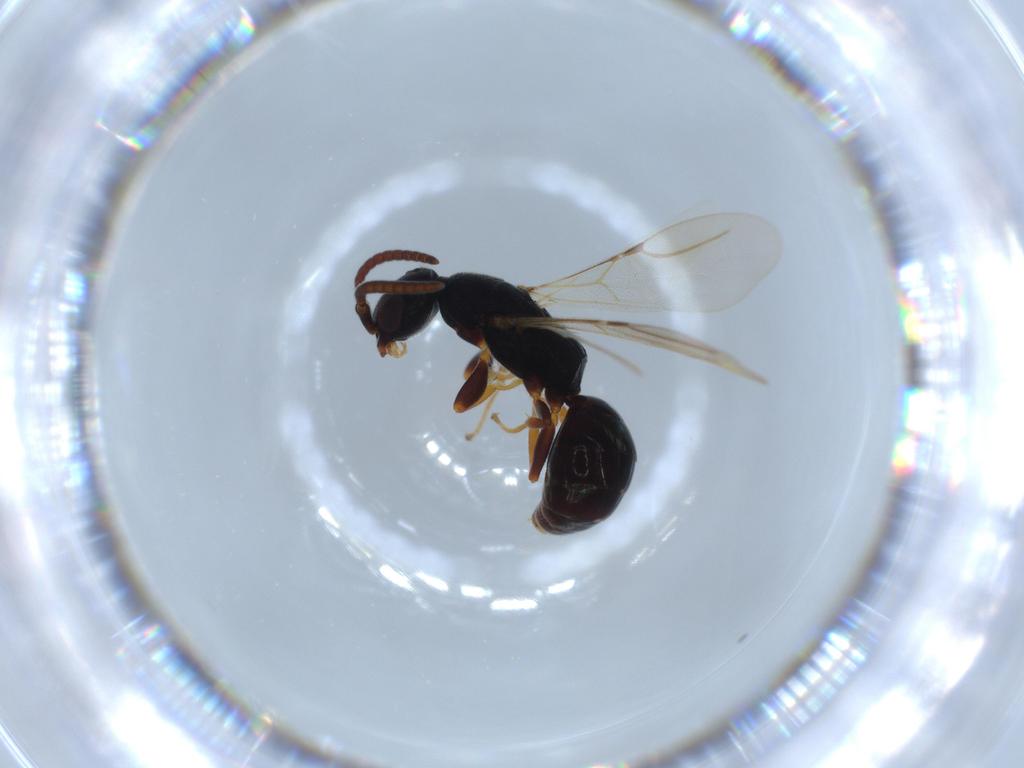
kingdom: Animalia
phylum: Arthropoda
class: Insecta
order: Hymenoptera
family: Bethylidae
